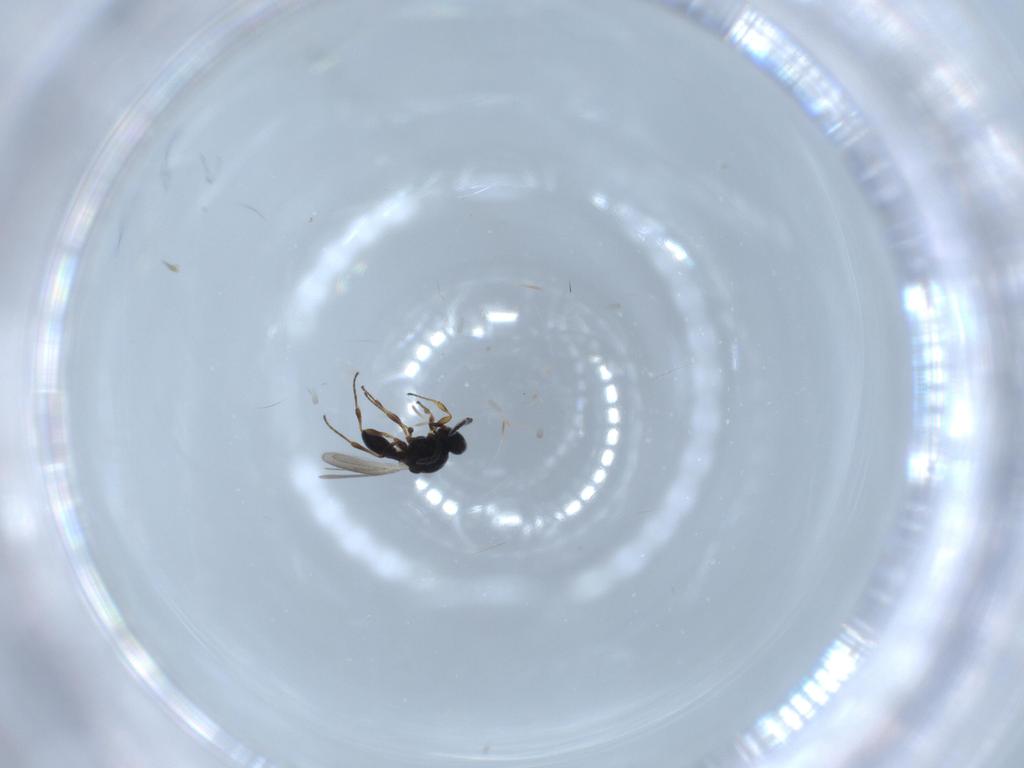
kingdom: Animalia
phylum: Arthropoda
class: Insecta
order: Hymenoptera
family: Platygastridae
